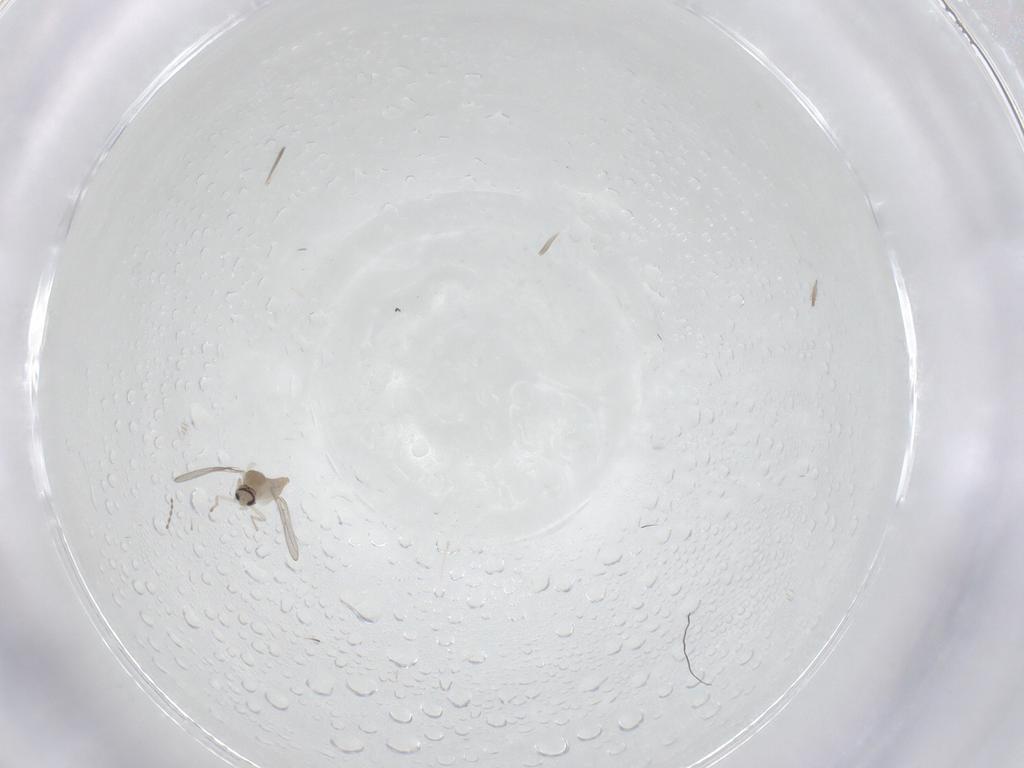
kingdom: Animalia
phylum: Arthropoda
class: Insecta
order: Diptera
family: Cecidomyiidae
